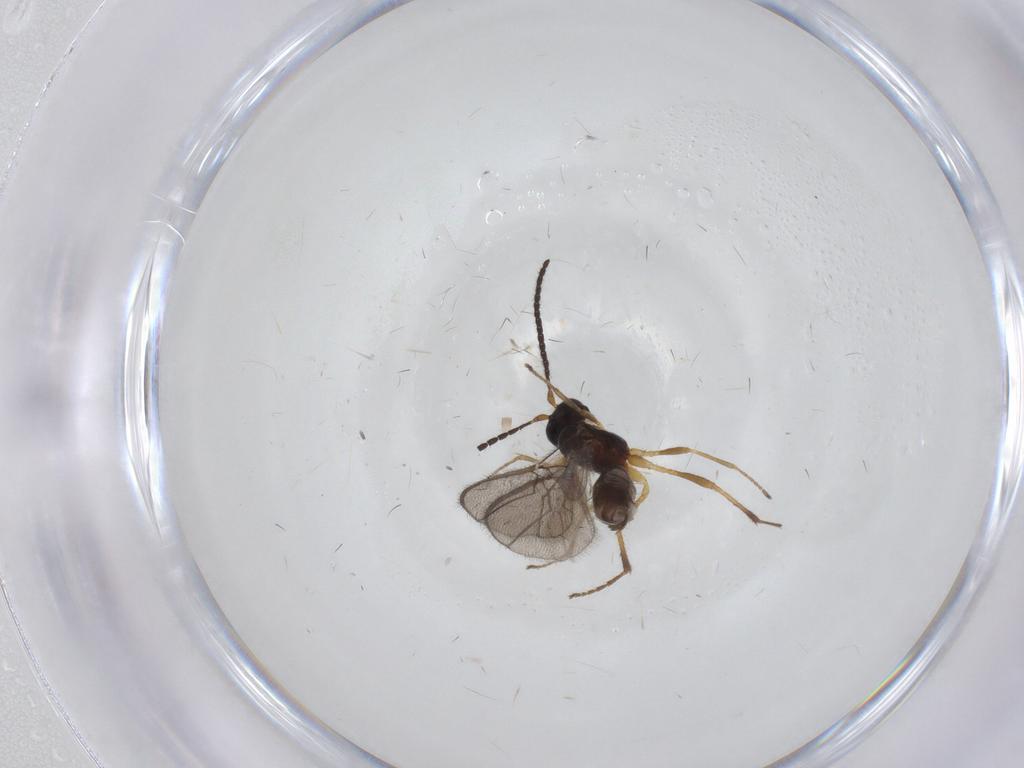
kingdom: Animalia
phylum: Arthropoda
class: Insecta
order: Hymenoptera
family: Braconidae
